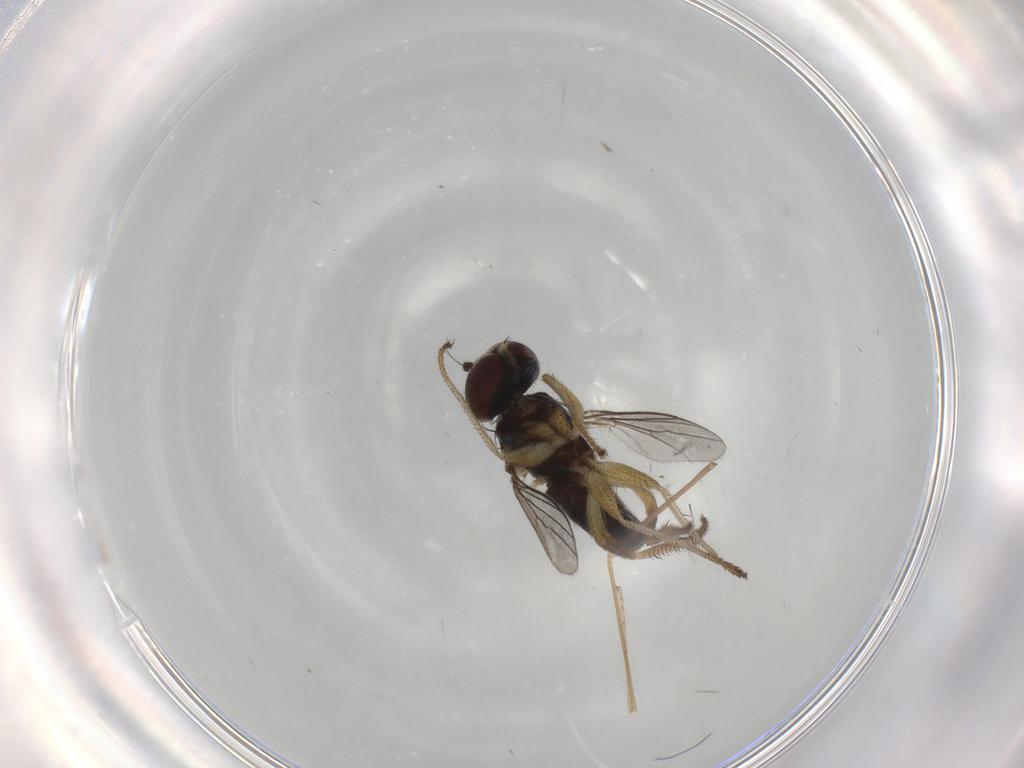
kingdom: Animalia
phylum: Arthropoda
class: Insecta
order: Diptera
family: Limoniidae
